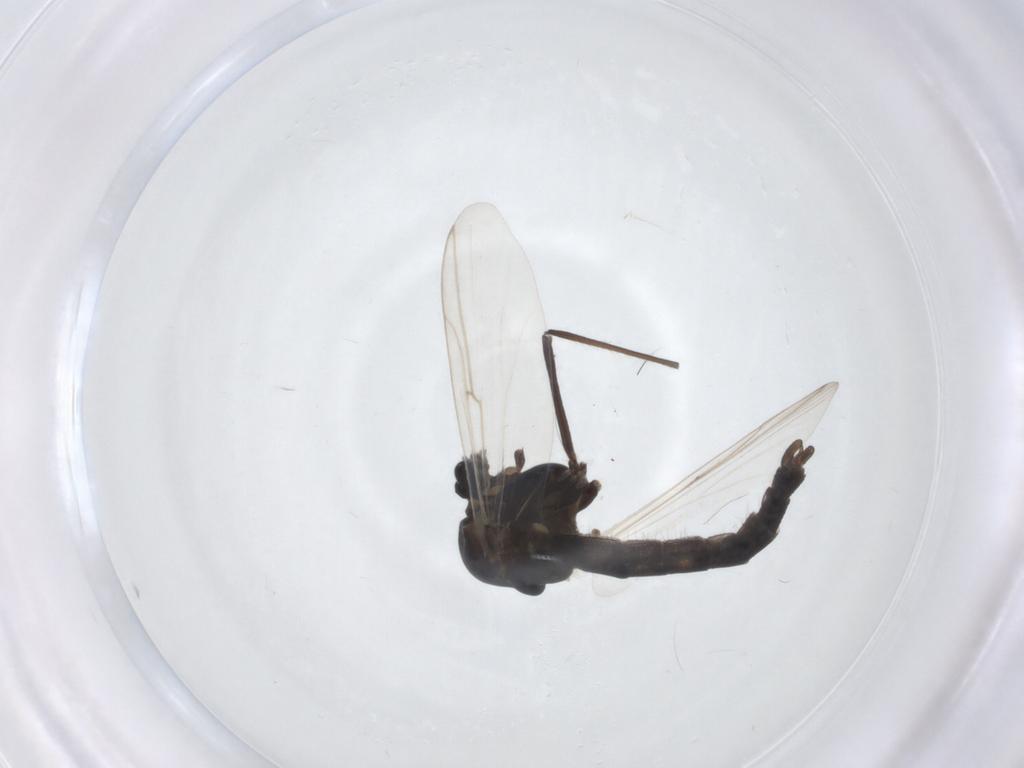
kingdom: Animalia
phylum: Arthropoda
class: Insecta
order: Diptera
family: Chironomidae
